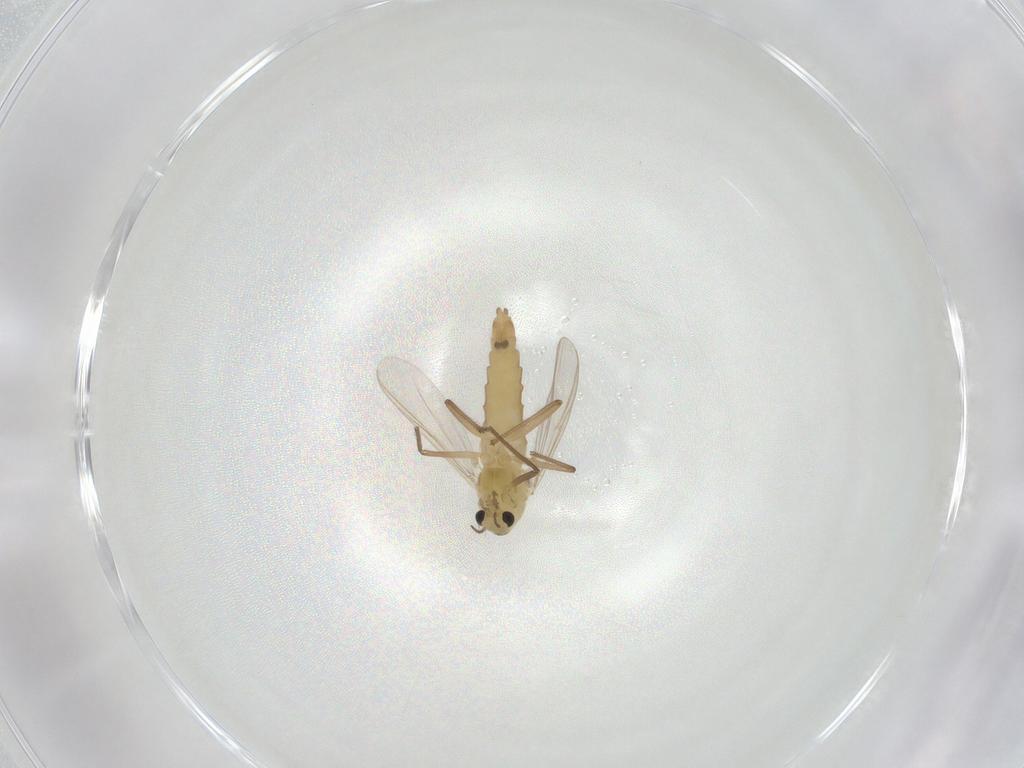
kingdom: Animalia
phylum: Arthropoda
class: Insecta
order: Diptera
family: Chironomidae
